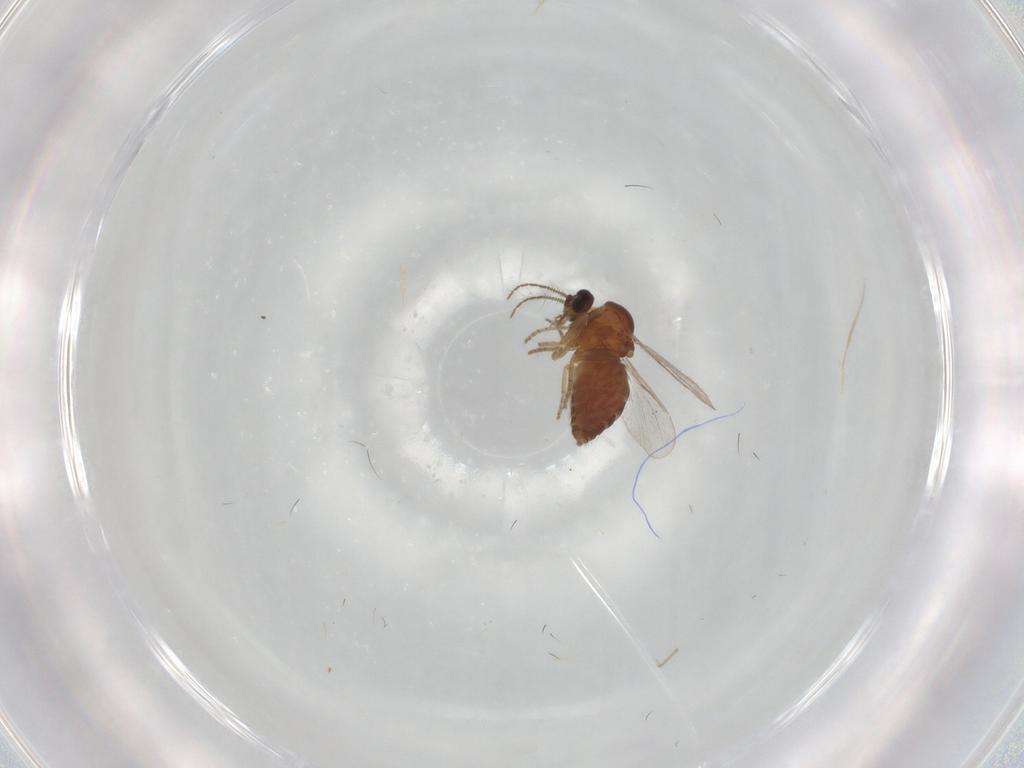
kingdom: Animalia
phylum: Arthropoda
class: Insecta
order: Diptera
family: Ceratopogonidae
